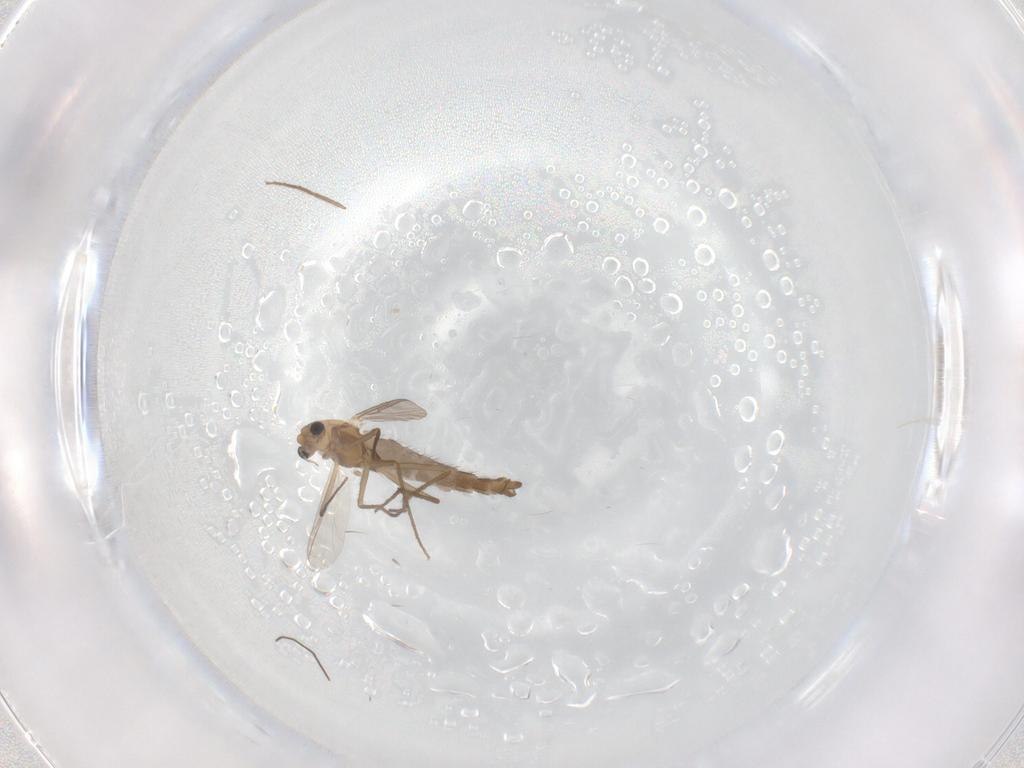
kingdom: Animalia
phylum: Arthropoda
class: Insecta
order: Diptera
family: Chironomidae
